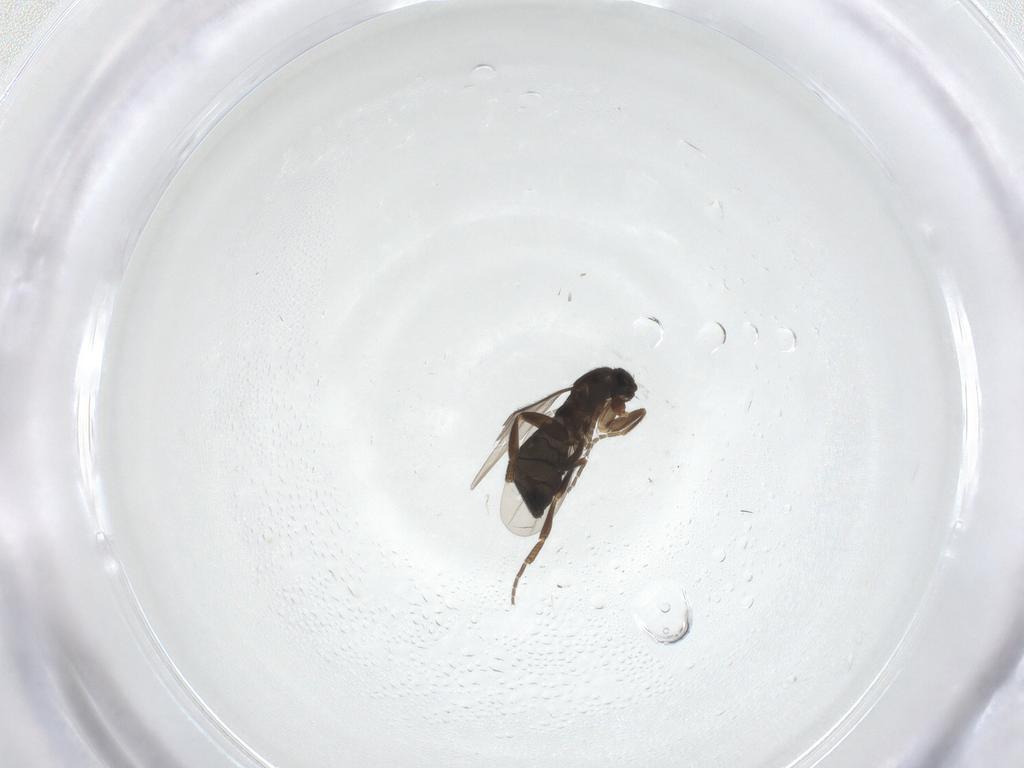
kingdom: Animalia
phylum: Arthropoda
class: Insecta
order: Diptera
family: Phoridae
